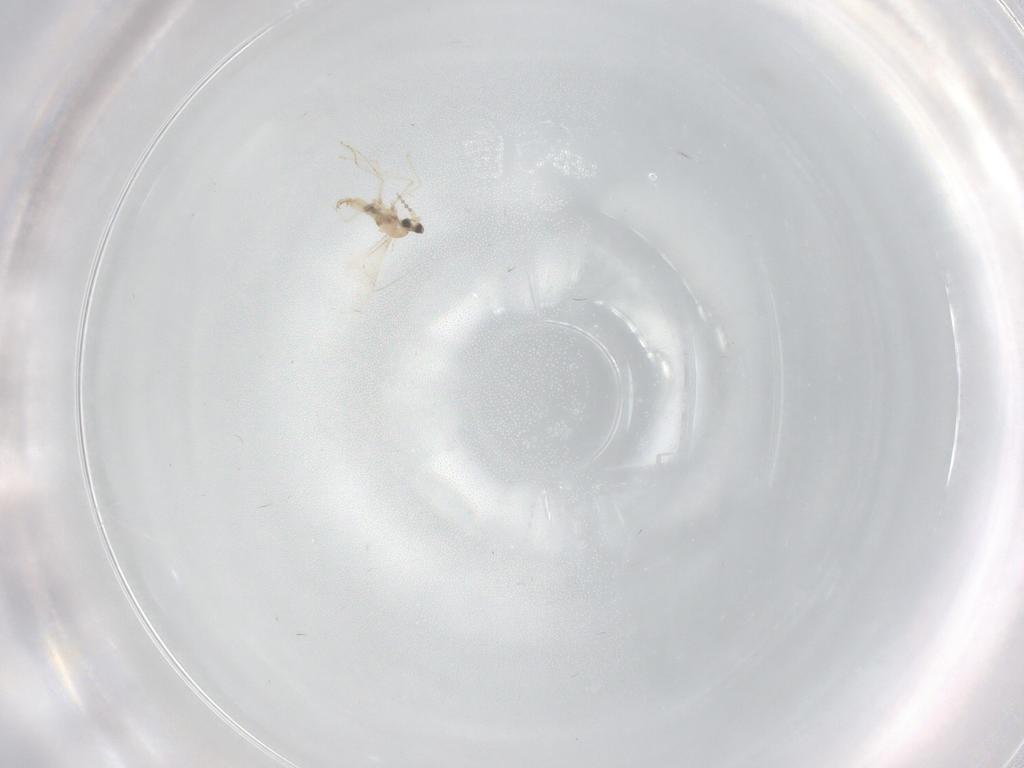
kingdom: Animalia
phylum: Arthropoda
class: Insecta
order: Diptera
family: Cecidomyiidae
